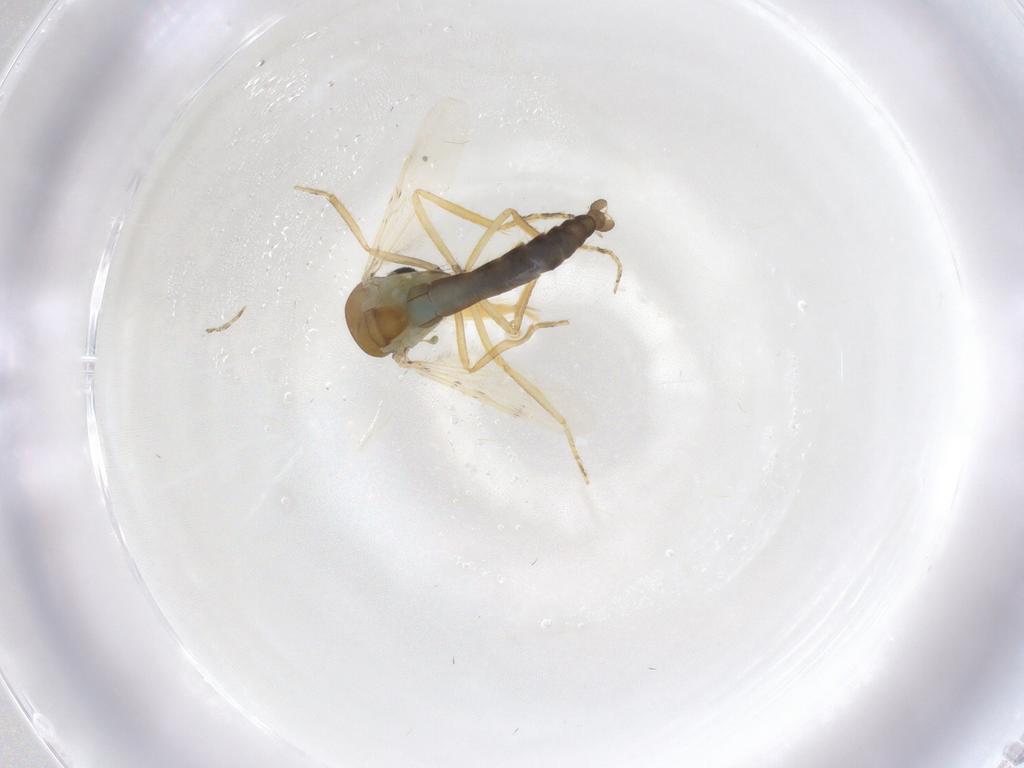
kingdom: Animalia
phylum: Arthropoda
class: Insecta
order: Diptera
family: Ceratopogonidae
